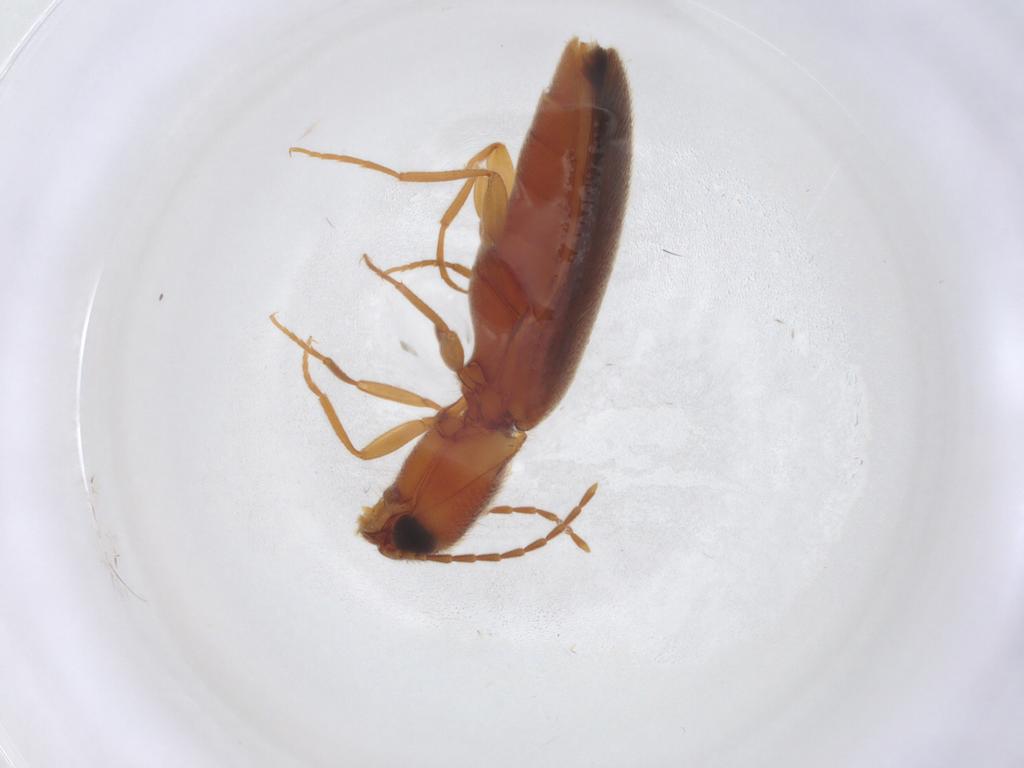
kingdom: Animalia
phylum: Arthropoda
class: Insecta
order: Coleoptera
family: Elateridae
